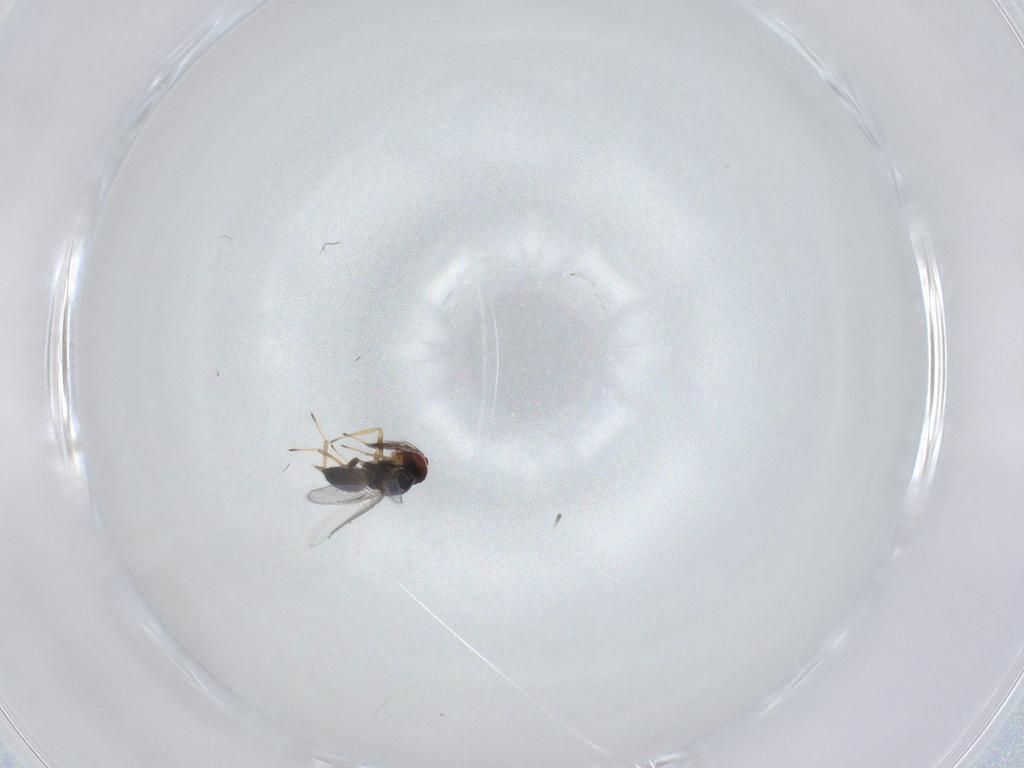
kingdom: Animalia
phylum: Arthropoda
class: Insecta
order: Hymenoptera
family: Eulophidae
